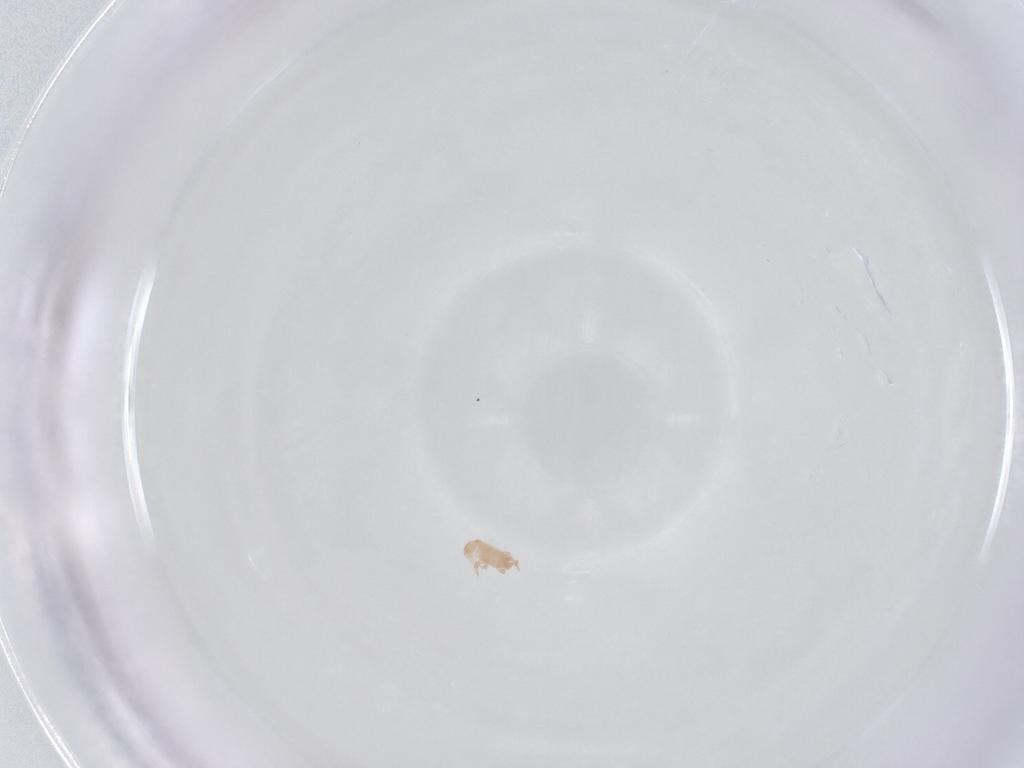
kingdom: Animalia
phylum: Arthropoda
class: Arachnida
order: Mesostigmata
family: Digamasellidae
